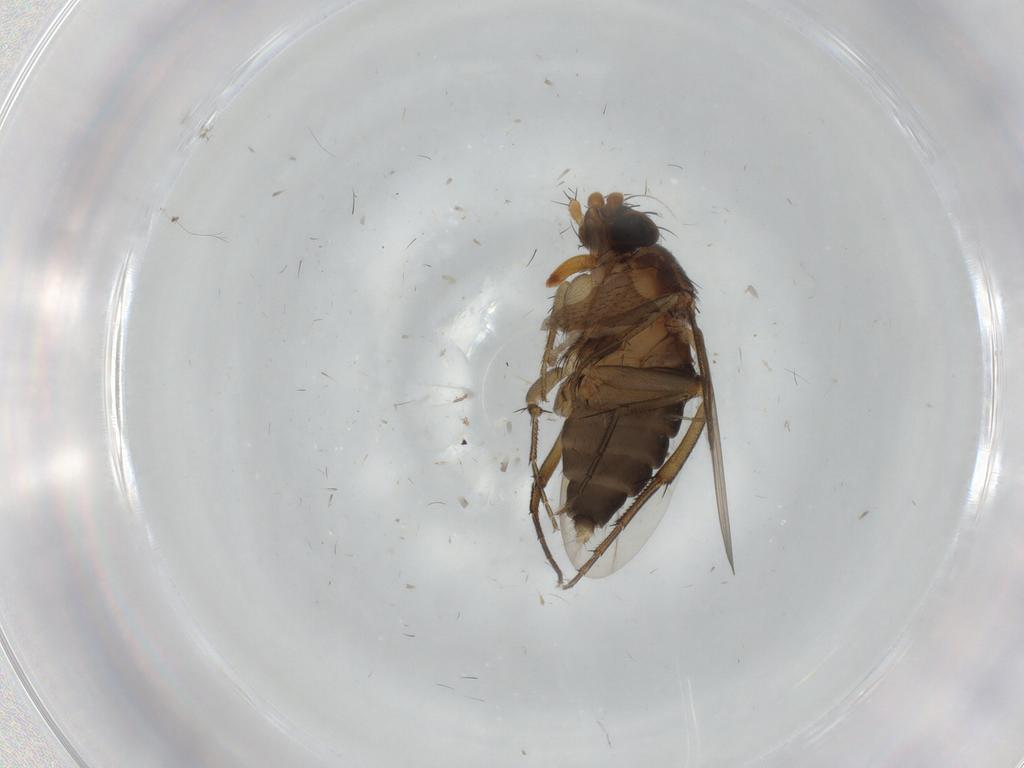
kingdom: Animalia
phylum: Arthropoda
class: Insecta
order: Diptera
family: Phoridae
